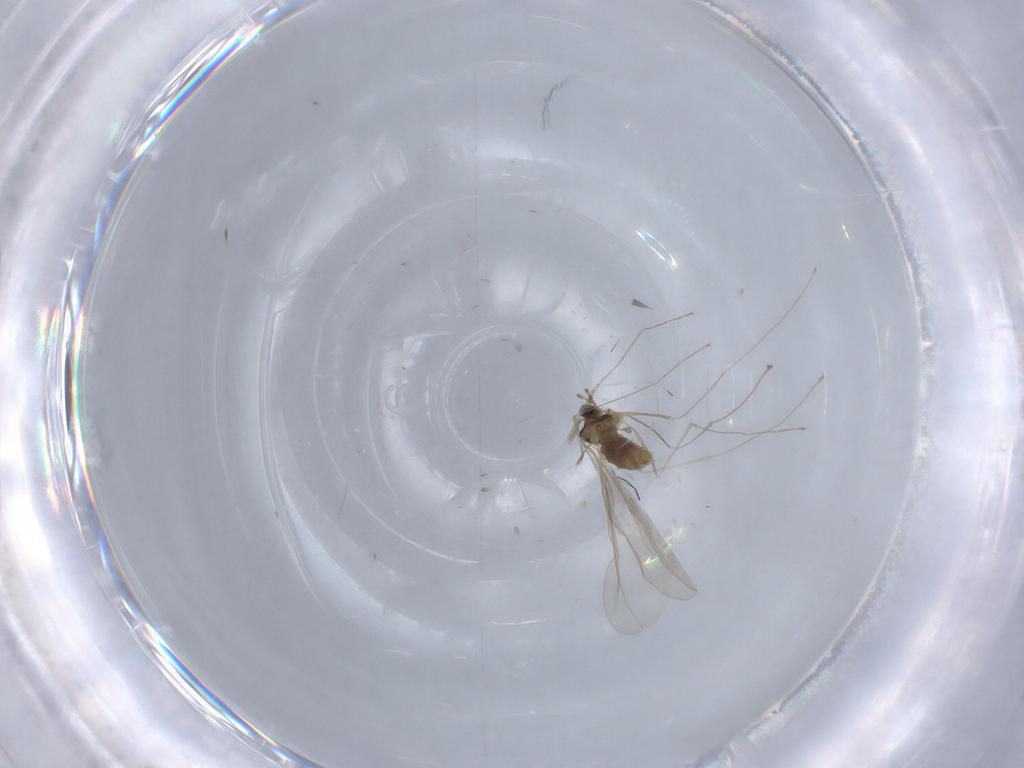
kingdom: Animalia
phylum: Arthropoda
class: Insecta
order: Diptera
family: Cecidomyiidae
